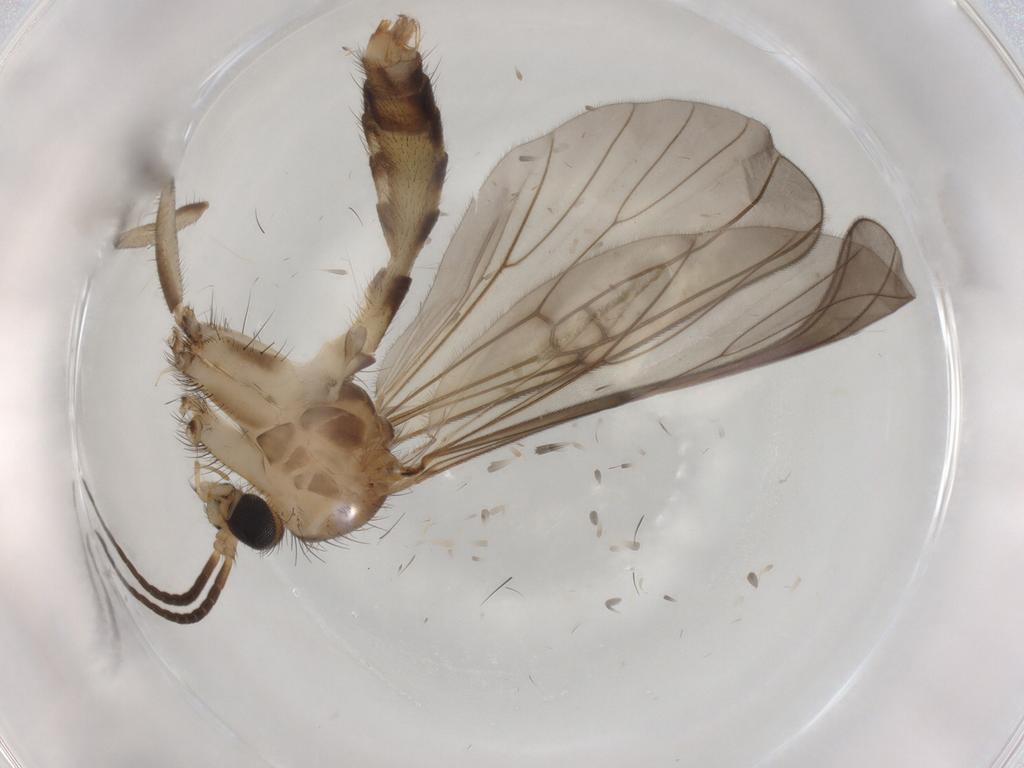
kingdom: Animalia
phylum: Arthropoda
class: Insecta
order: Diptera
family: Mycetophilidae
